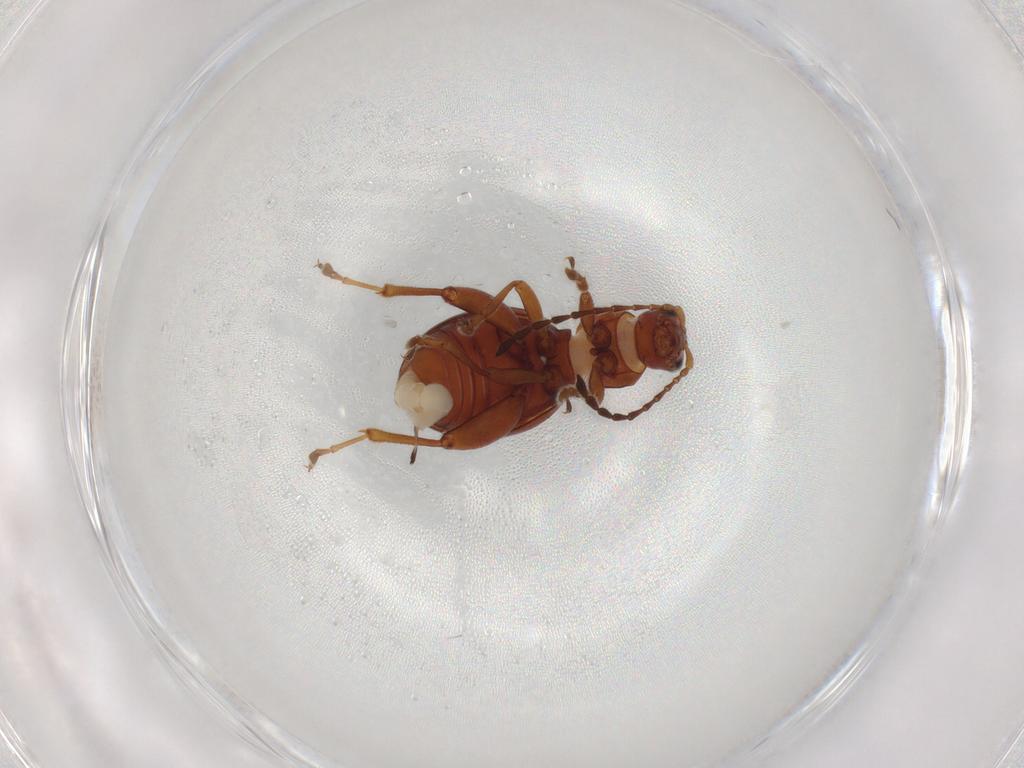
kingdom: Animalia
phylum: Arthropoda
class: Insecta
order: Coleoptera
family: Chrysomelidae
